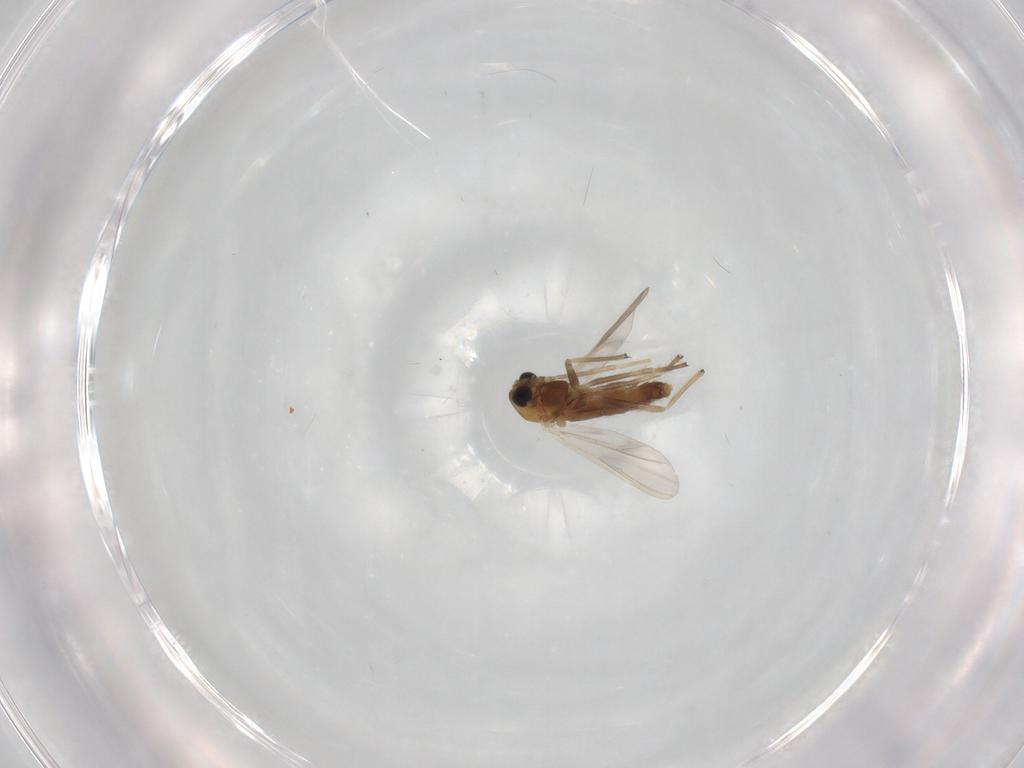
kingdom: Animalia
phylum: Arthropoda
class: Insecta
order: Diptera
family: Chironomidae
